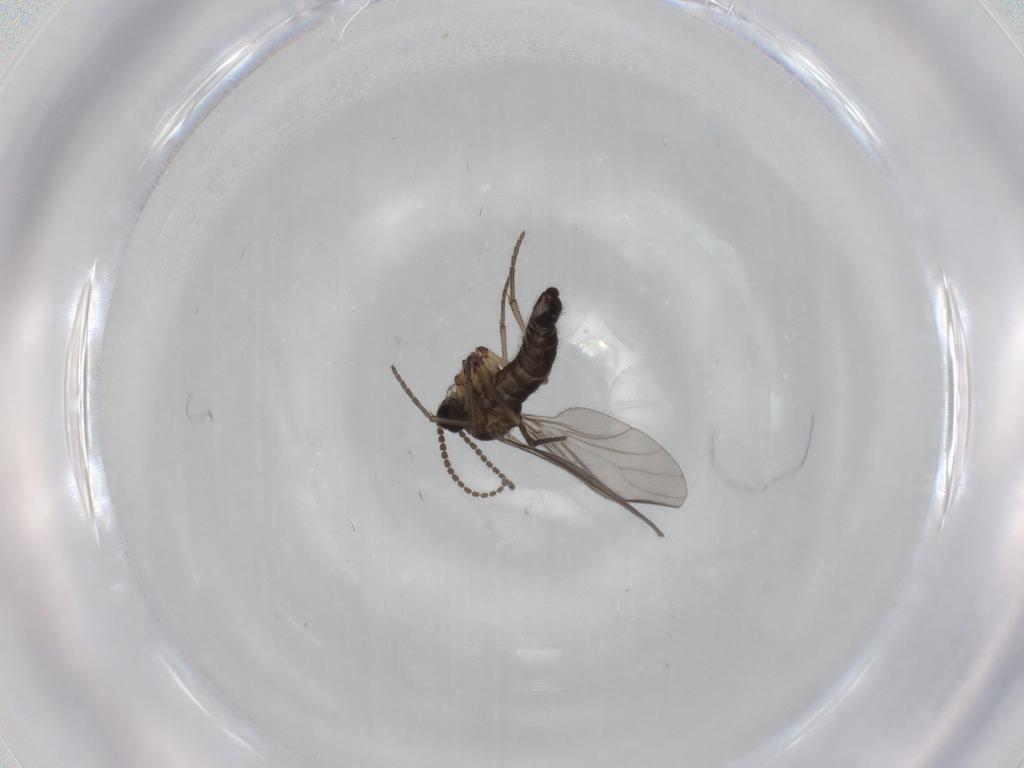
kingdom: Animalia
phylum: Arthropoda
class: Insecta
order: Diptera
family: Sciaridae
